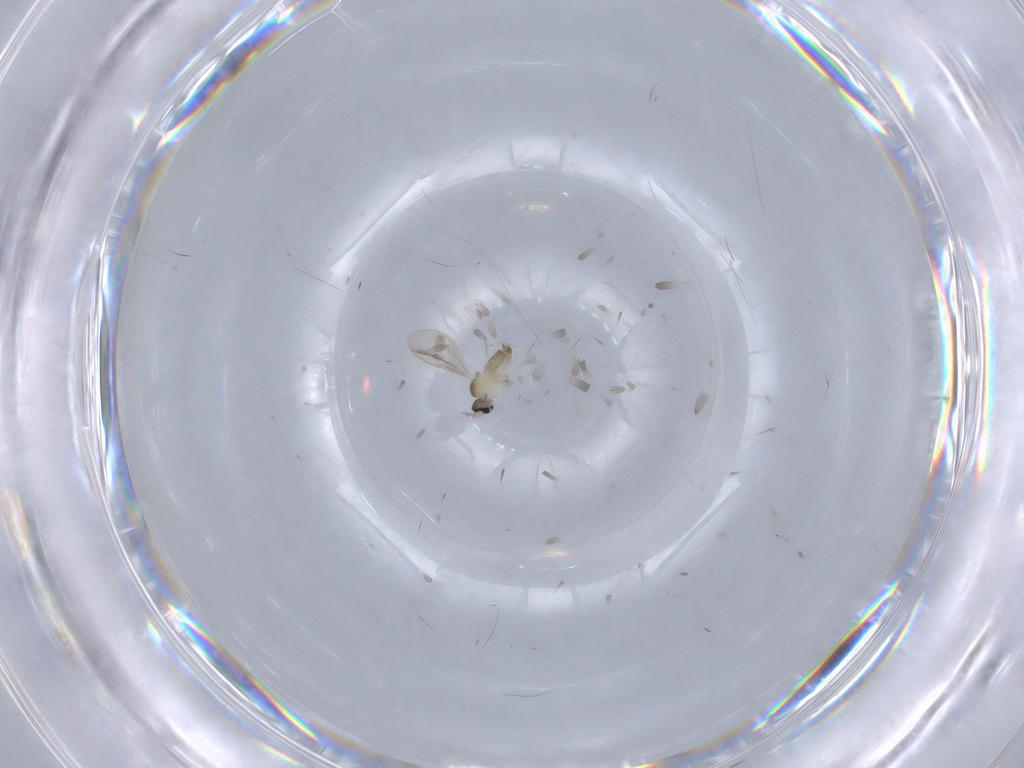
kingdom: Animalia
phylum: Arthropoda
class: Insecta
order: Diptera
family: Cecidomyiidae
